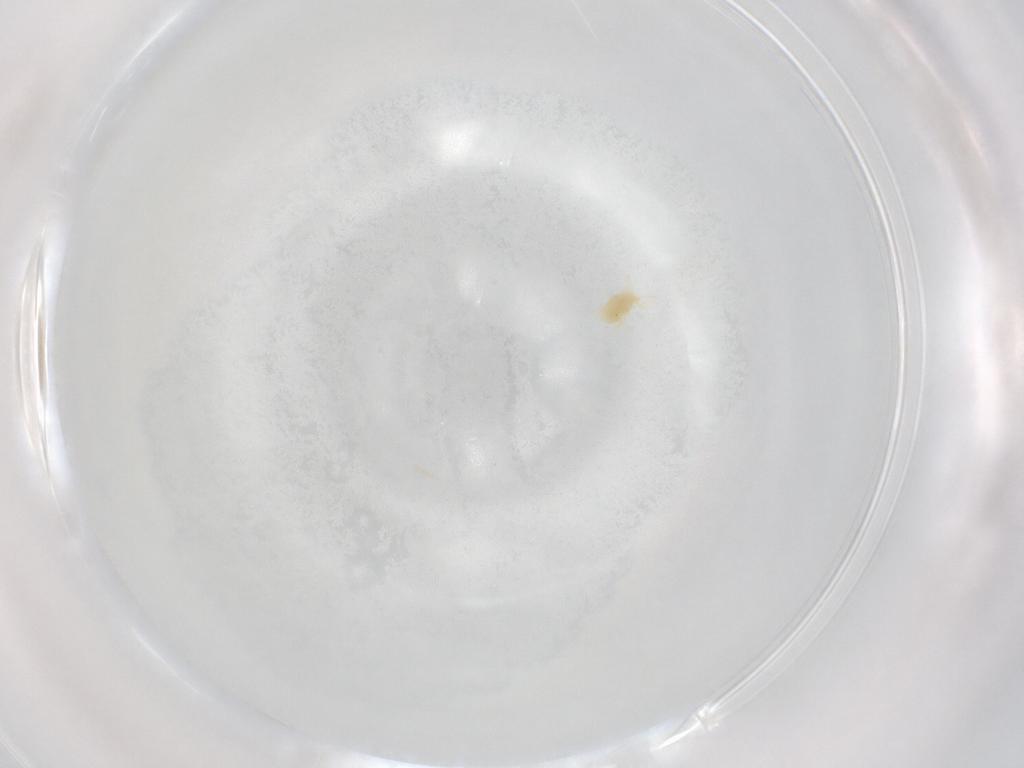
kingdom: Animalia
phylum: Arthropoda
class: Arachnida
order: Trombidiformes
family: Eupodidae
